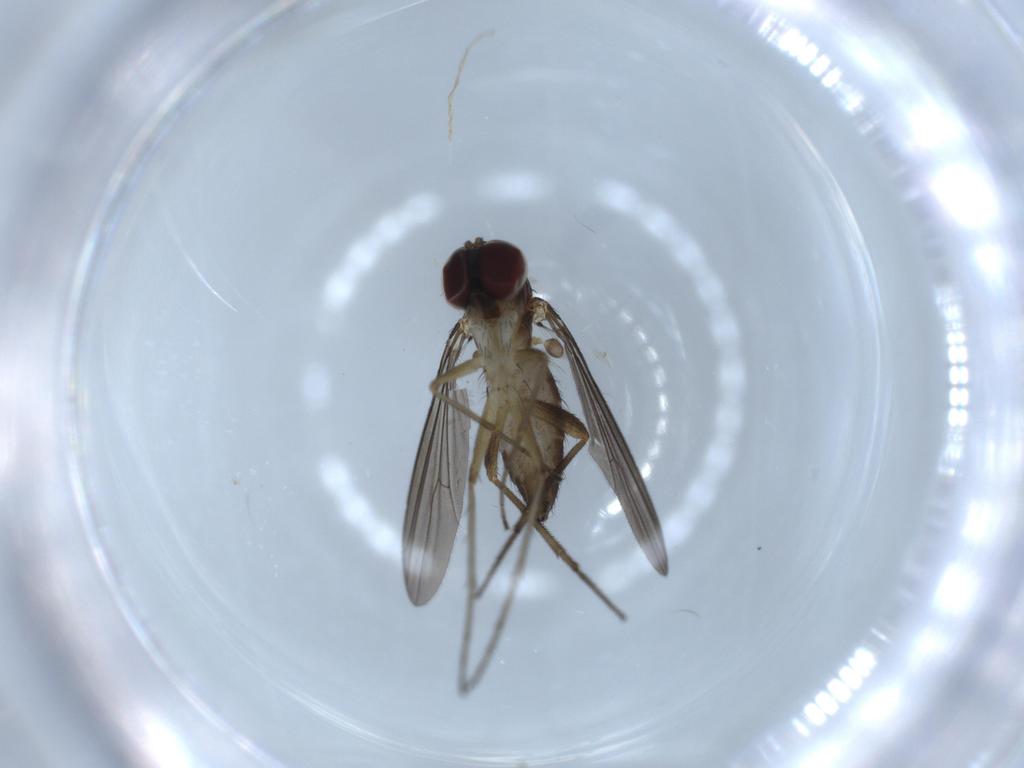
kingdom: Animalia
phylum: Arthropoda
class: Insecta
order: Diptera
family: Dolichopodidae
